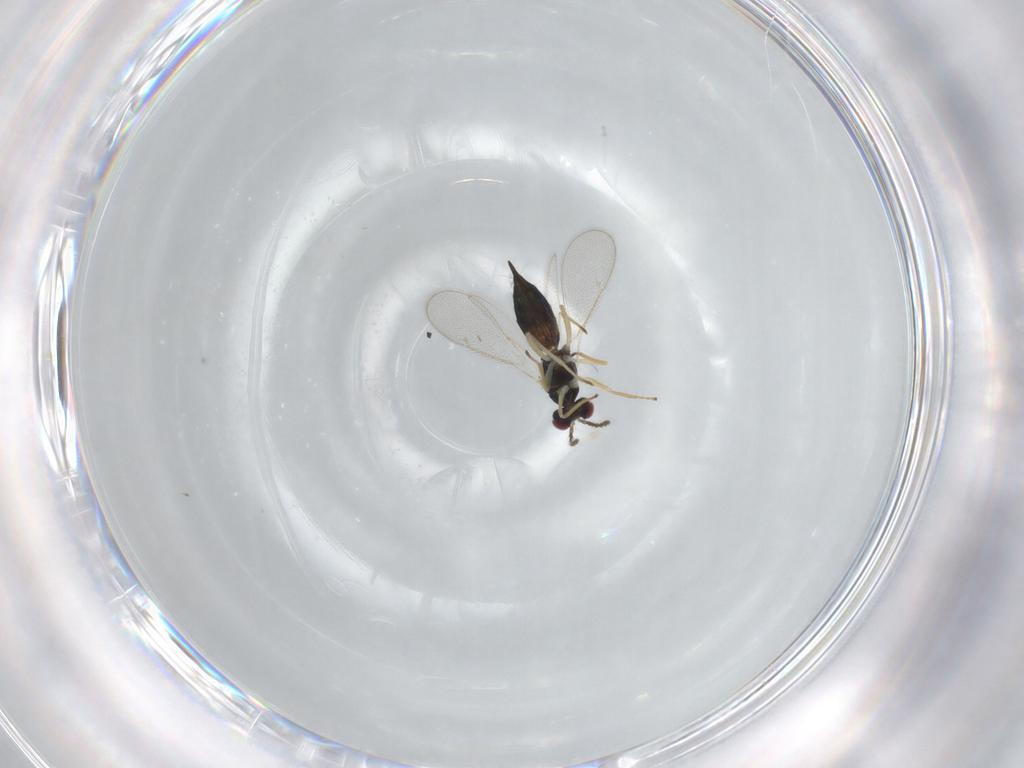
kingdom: Animalia
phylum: Arthropoda
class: Insecta
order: Hymenoptera
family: Eulophidae
